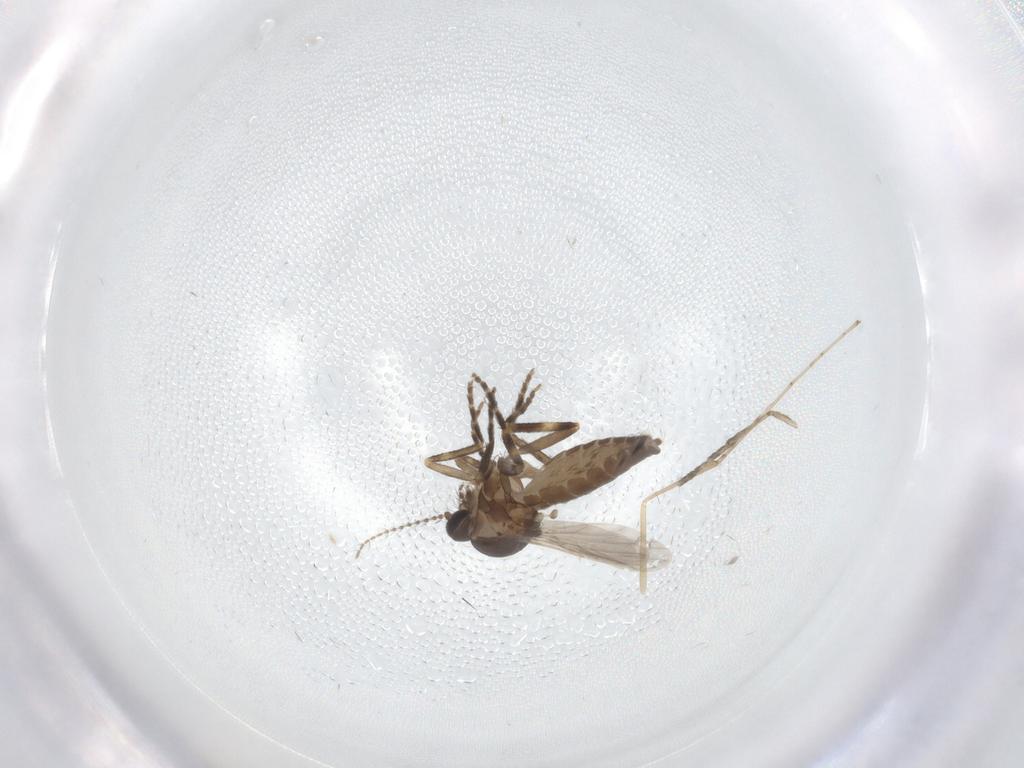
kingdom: Animalia
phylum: Arthropoda
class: Insecta
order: Diptera
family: Ceratopogonidae
